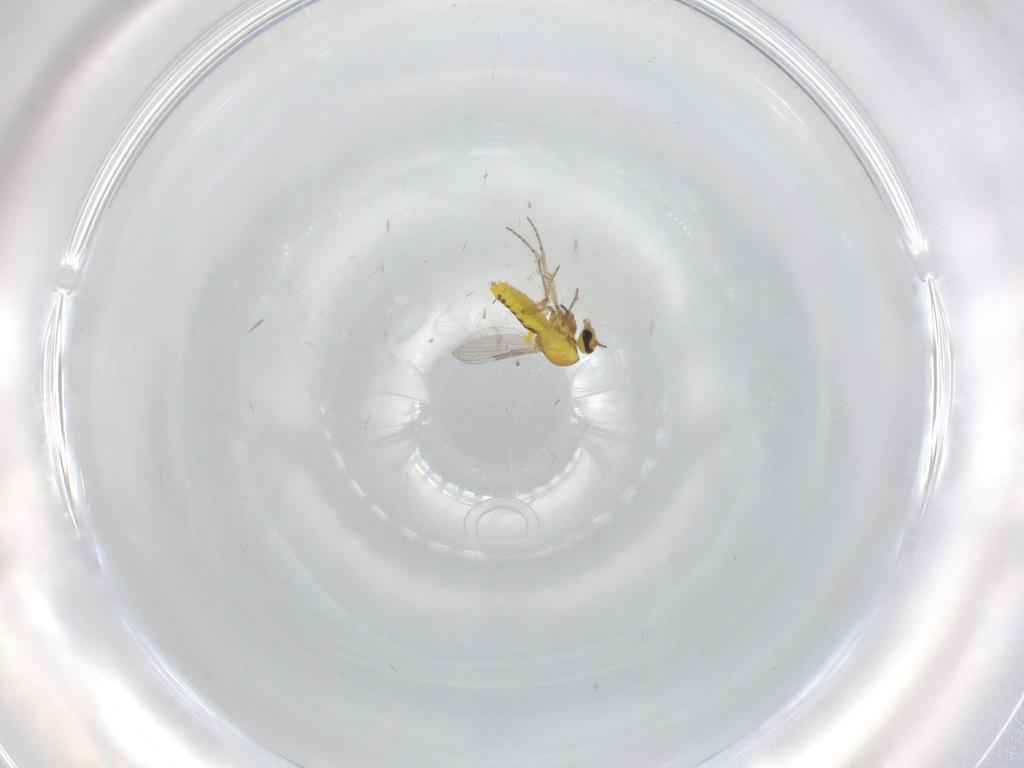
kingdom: Animalia
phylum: Arthropoda
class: Insecta
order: Diptera
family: Ceratopogonidae
